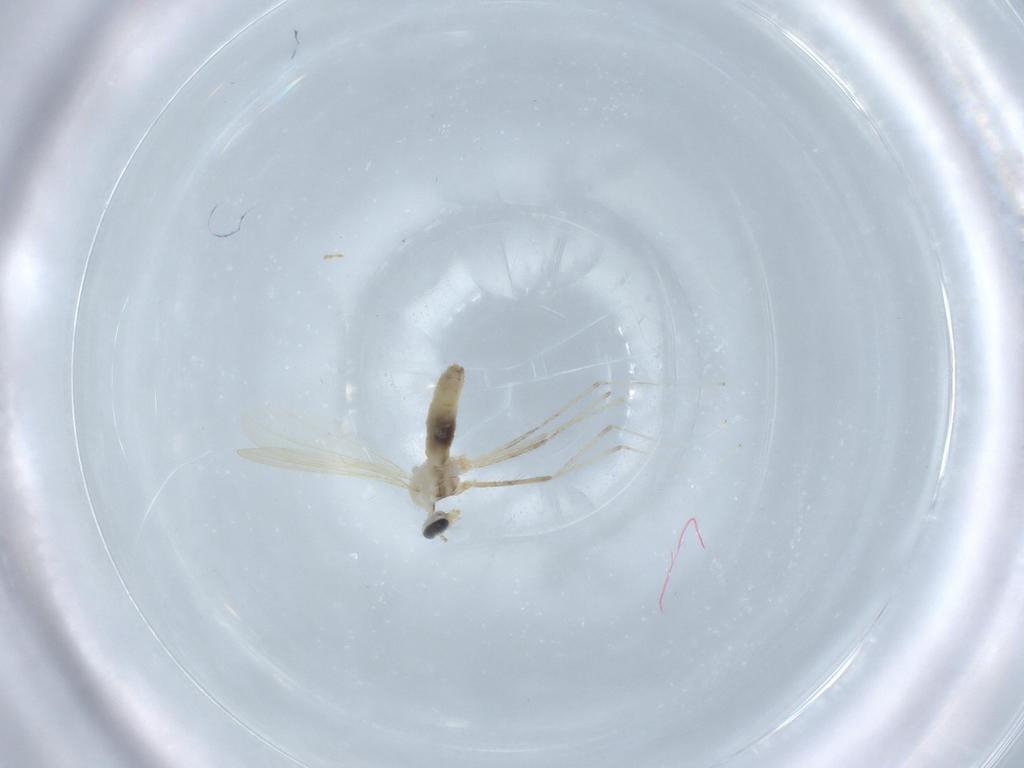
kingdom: Animalia
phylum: Arthropoda
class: Insecta
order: Diptera
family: Cecidomyiidae
